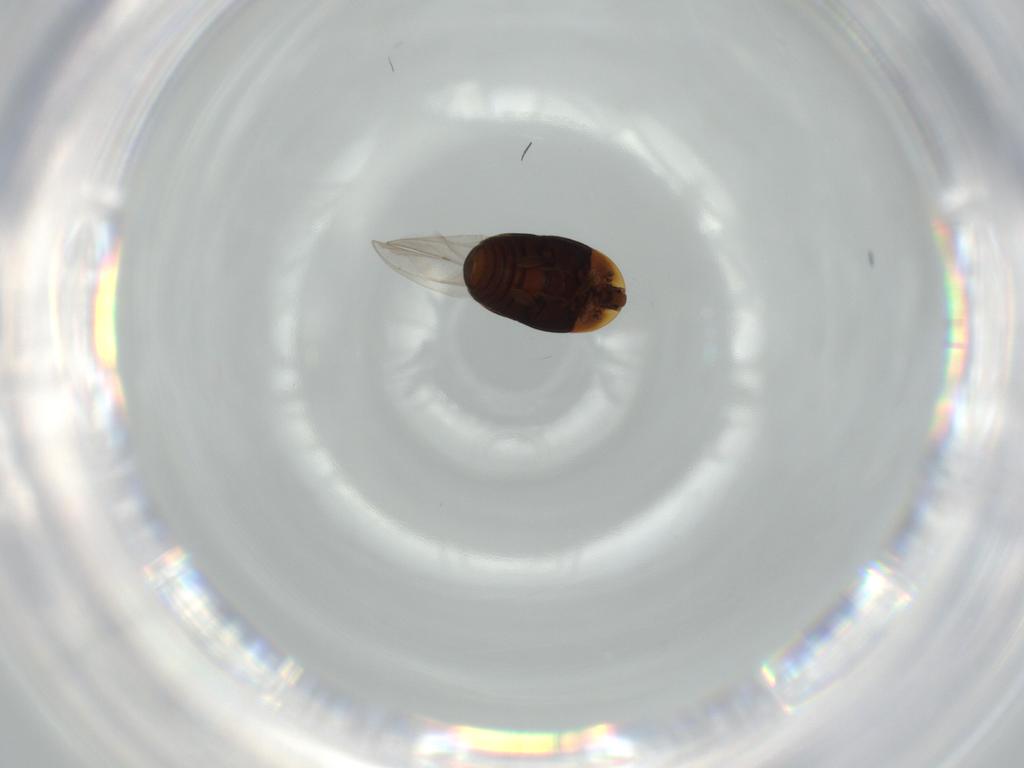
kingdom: Animalia
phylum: Arthropoda
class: Insecta
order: Coleoptera
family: Corylophidae
